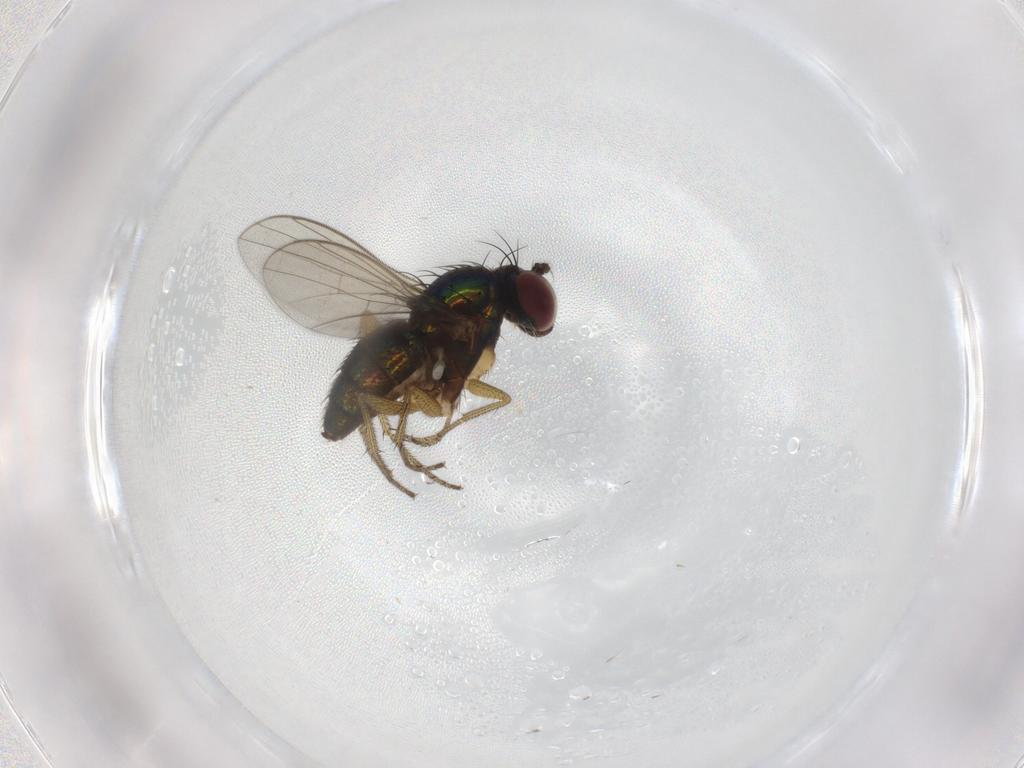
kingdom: Animalia
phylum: Arthropoda
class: Insecta
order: Diptera
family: Dolichopodidae
